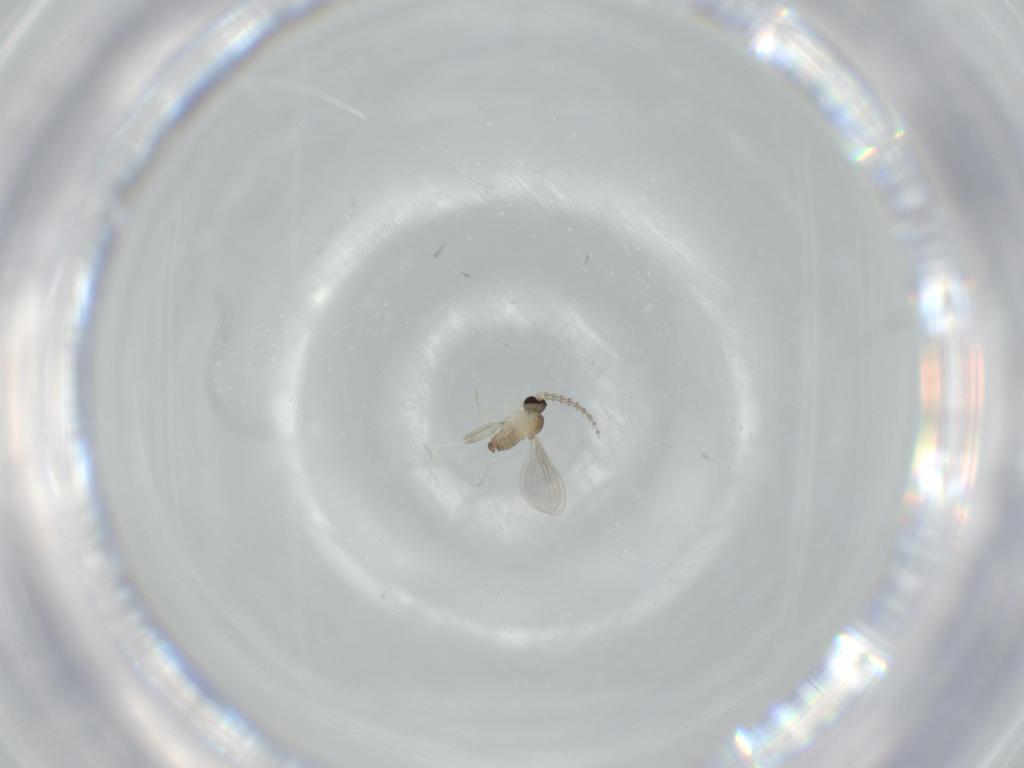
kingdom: Animalia
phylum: Arthropoda
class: Insecta
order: Diptera
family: Cecidomyiidae
